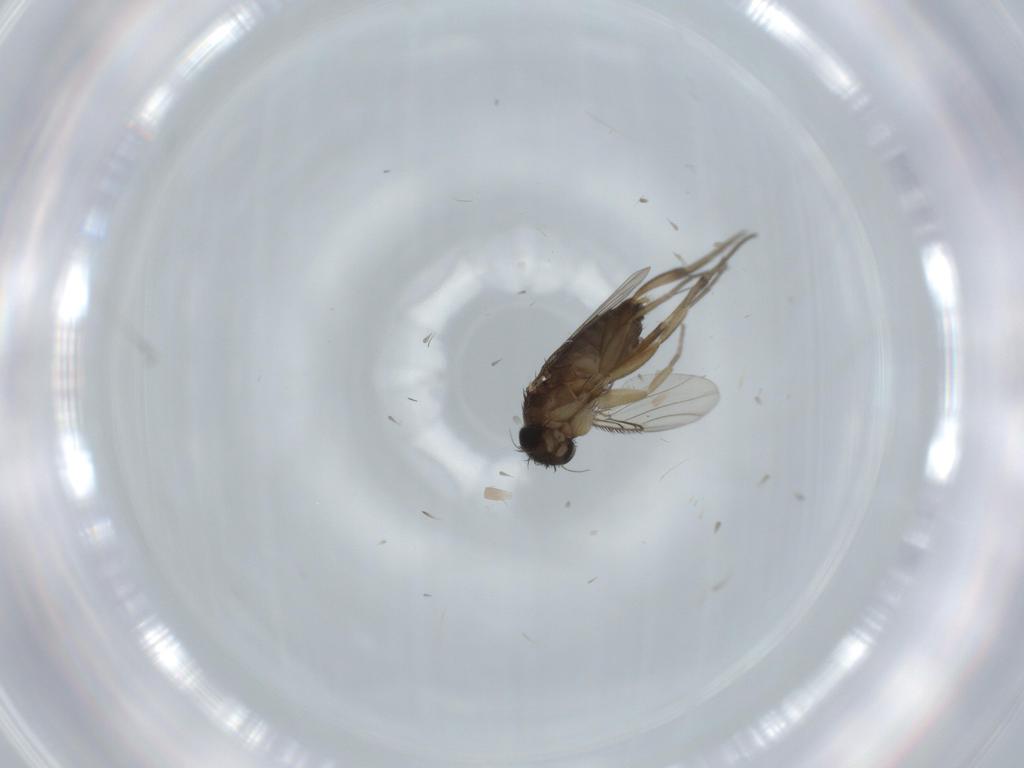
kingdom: Animalia
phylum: Arthropoda
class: Insecta
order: Diptera
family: Phoridae
